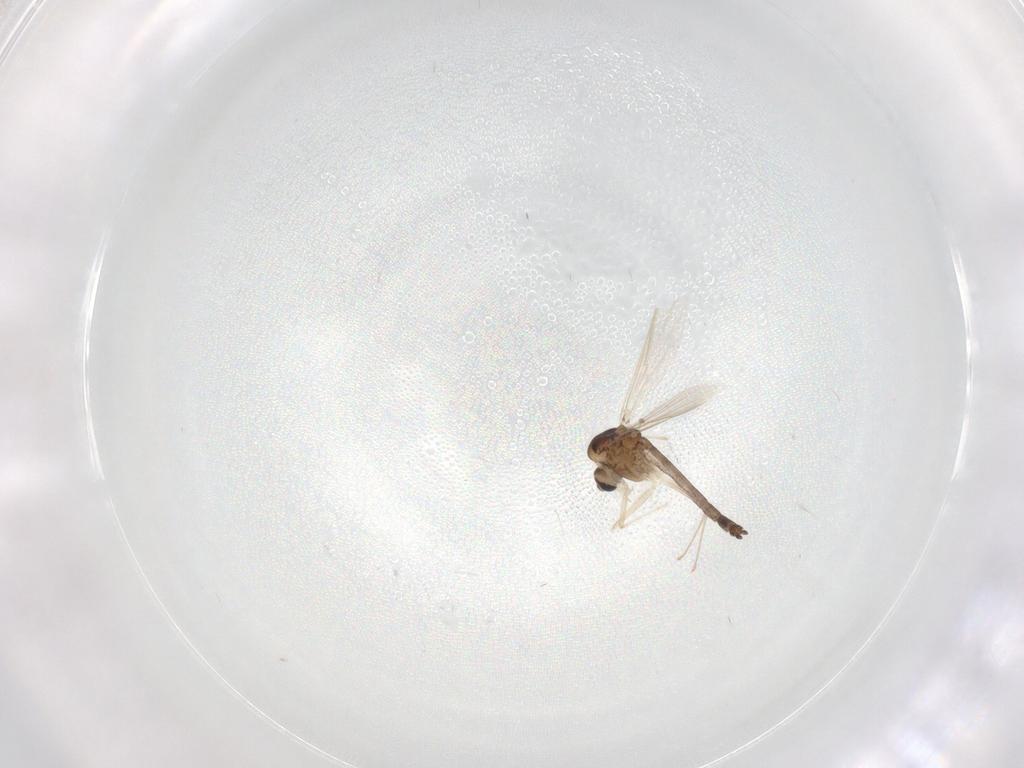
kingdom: Animalia
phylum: Arthropoda
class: Insecta
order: Diptera
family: Chironomidae
